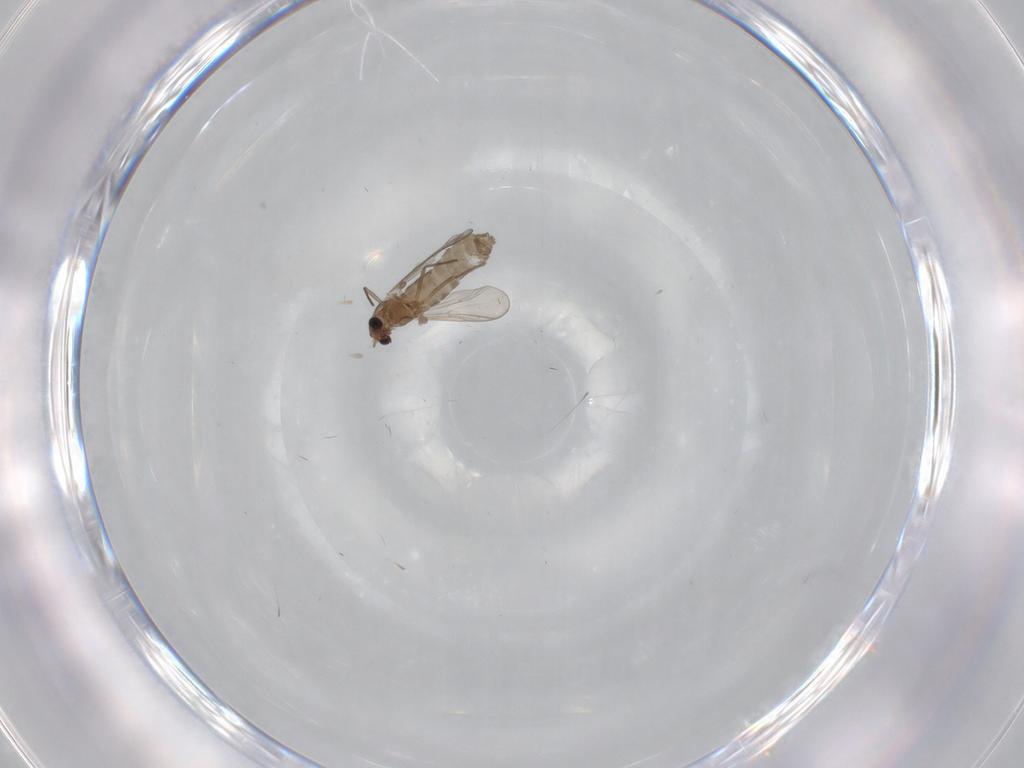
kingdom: Animalia
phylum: Arthropoda
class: Insecta
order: Diptera
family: Chironomidae
